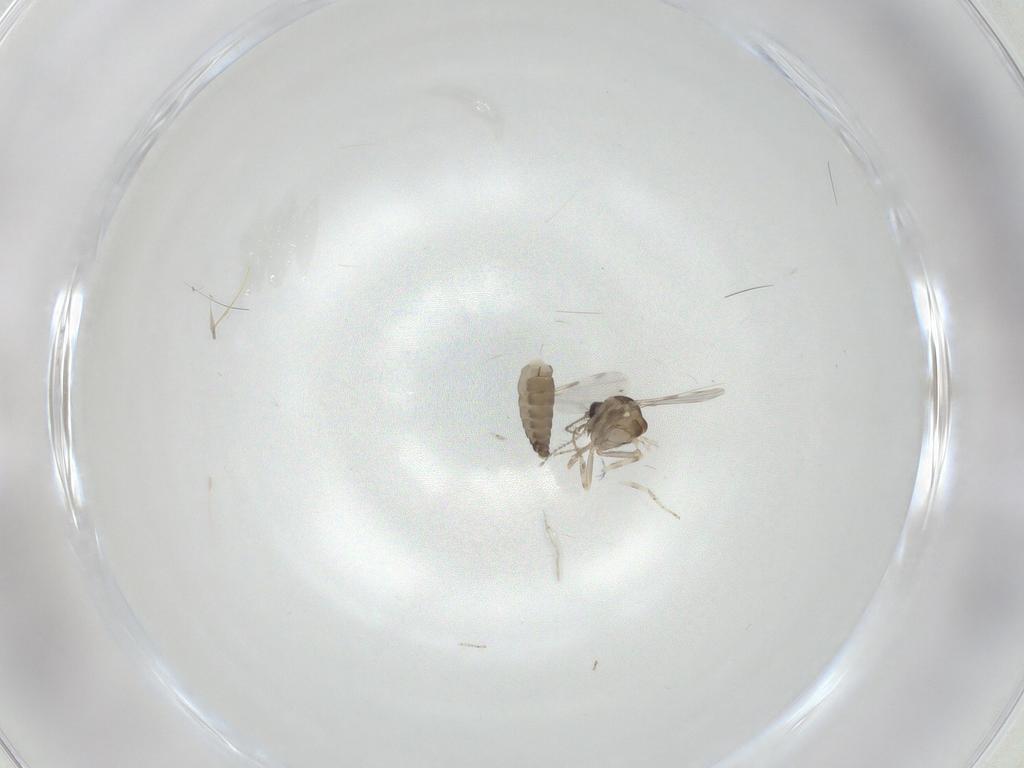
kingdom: Animalia
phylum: Arthropoda
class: Insecta
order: Diptera
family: Ceratopogonidae
